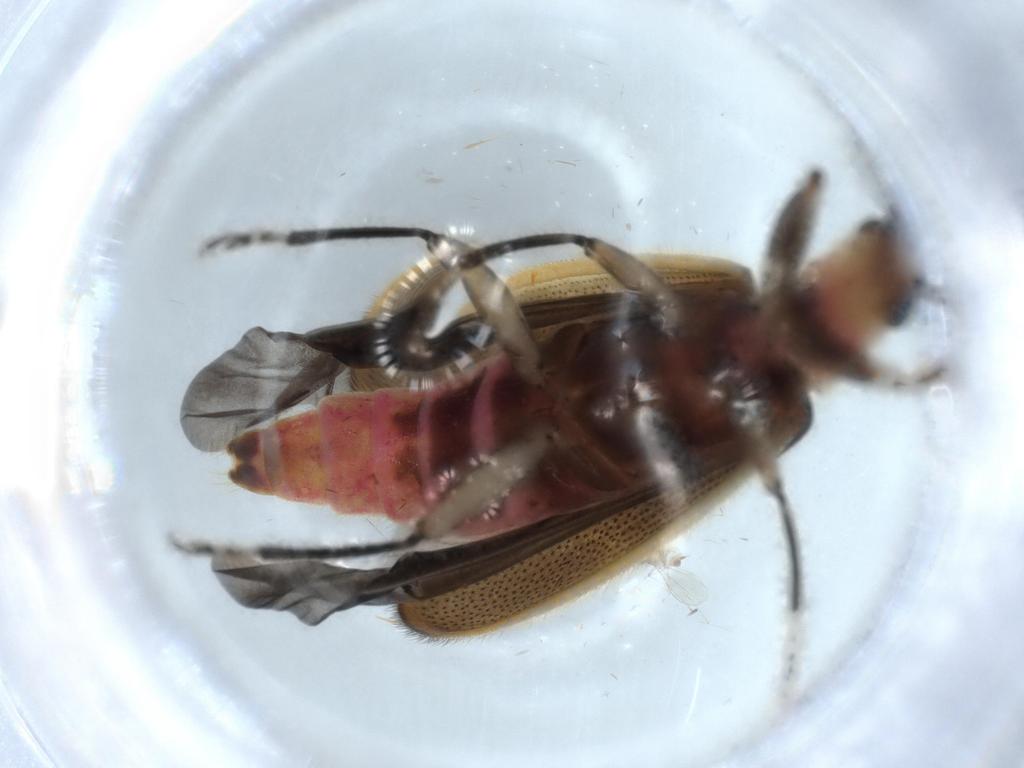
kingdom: Animalia
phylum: Arthropoda
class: Insecta
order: Coleoptera
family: Cleridae
